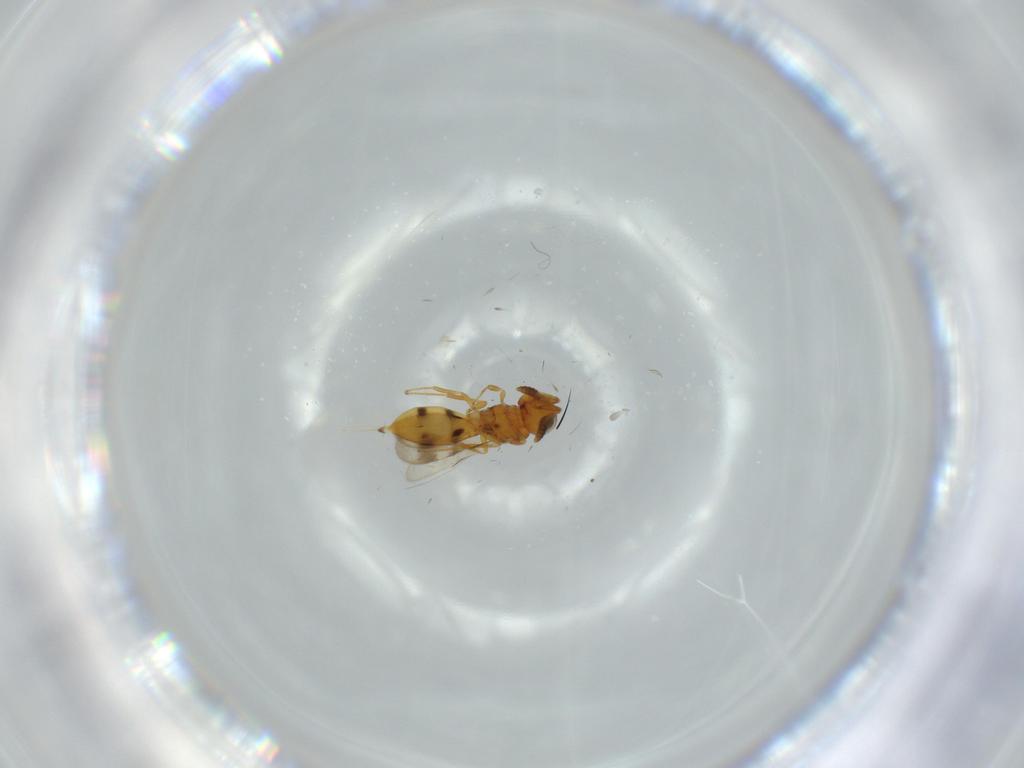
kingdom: Animalia
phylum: Arthropoda
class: Insecta
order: Hymenoptera
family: Scelionidae
